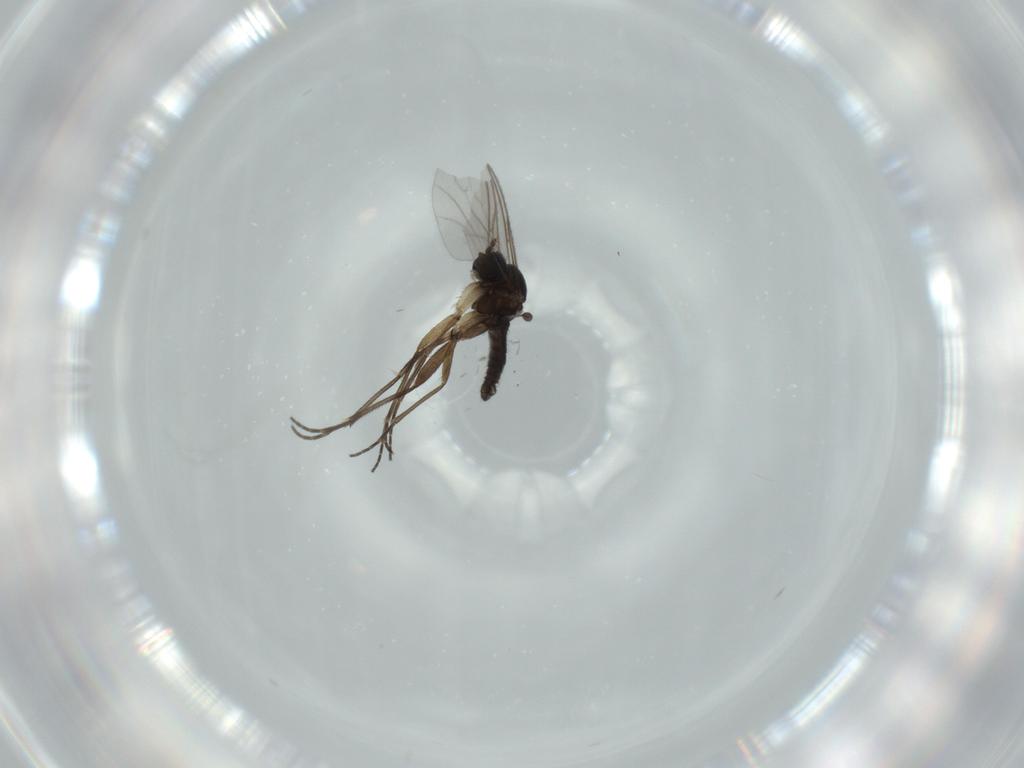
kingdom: Animalia
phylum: Arthropoda
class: Insecta
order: Diptera
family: Sciaridae
